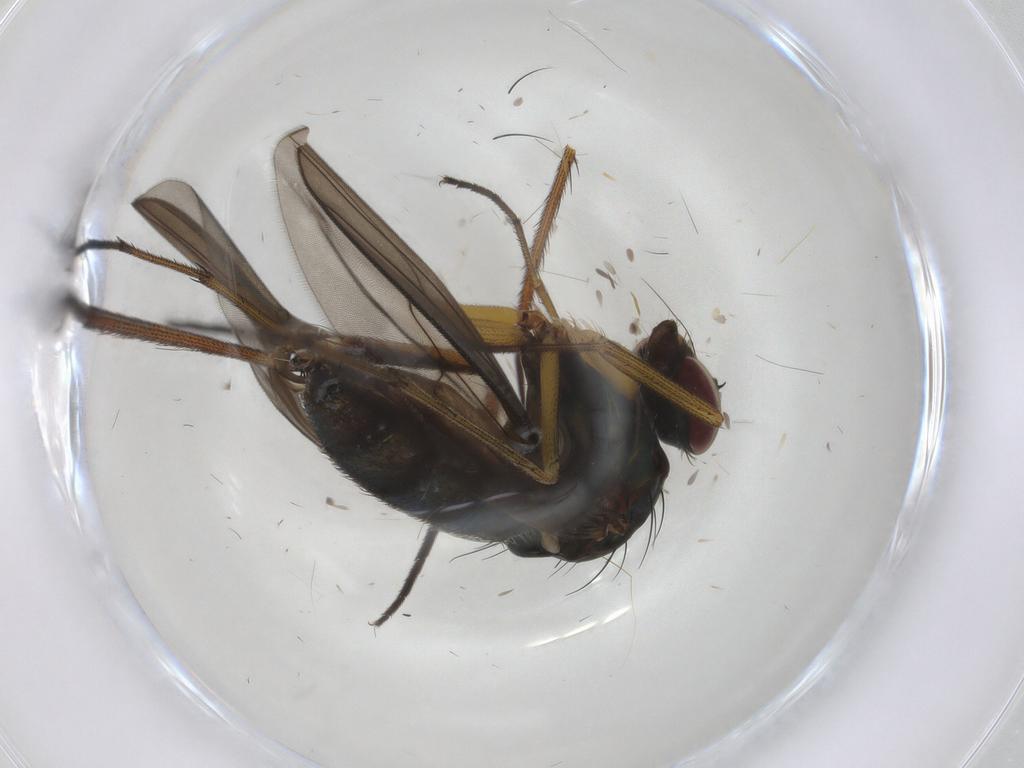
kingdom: Animalia
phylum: Arthropoda
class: Insecta
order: Diptera
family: Dolichopodidae
